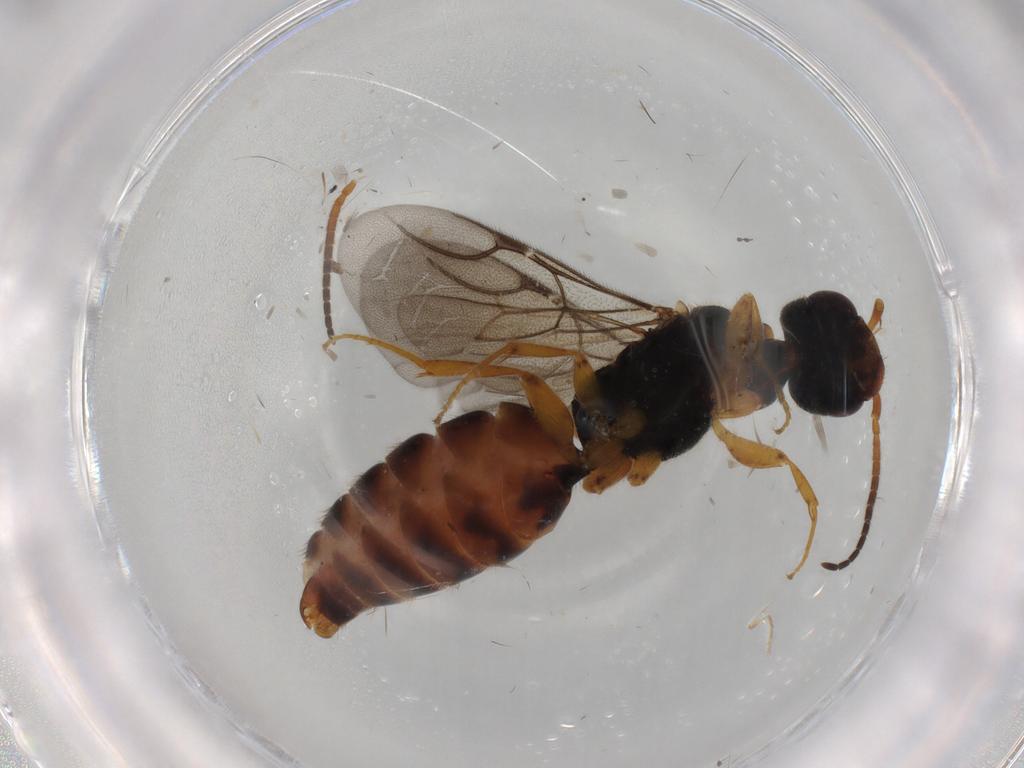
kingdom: Animalia
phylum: Arthropoda
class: Insecta
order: Hymenoptera
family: Bethylidae
